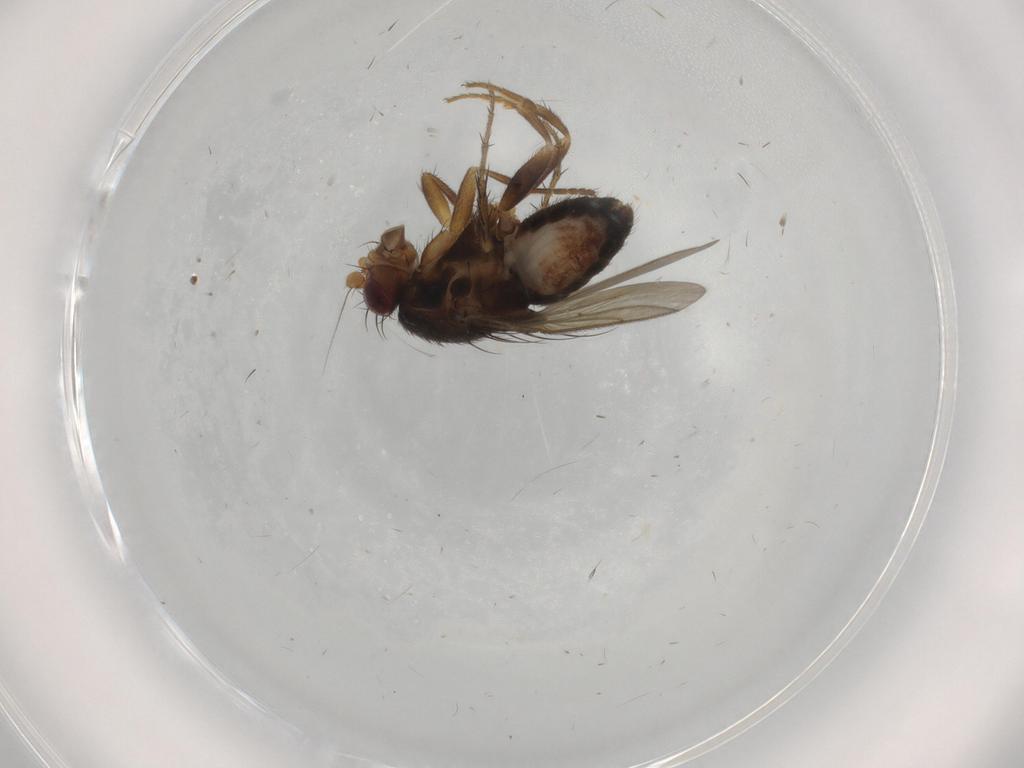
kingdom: Animalia
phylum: Arthropoda
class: Insecta
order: Diptera
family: Sphaeroceridae
